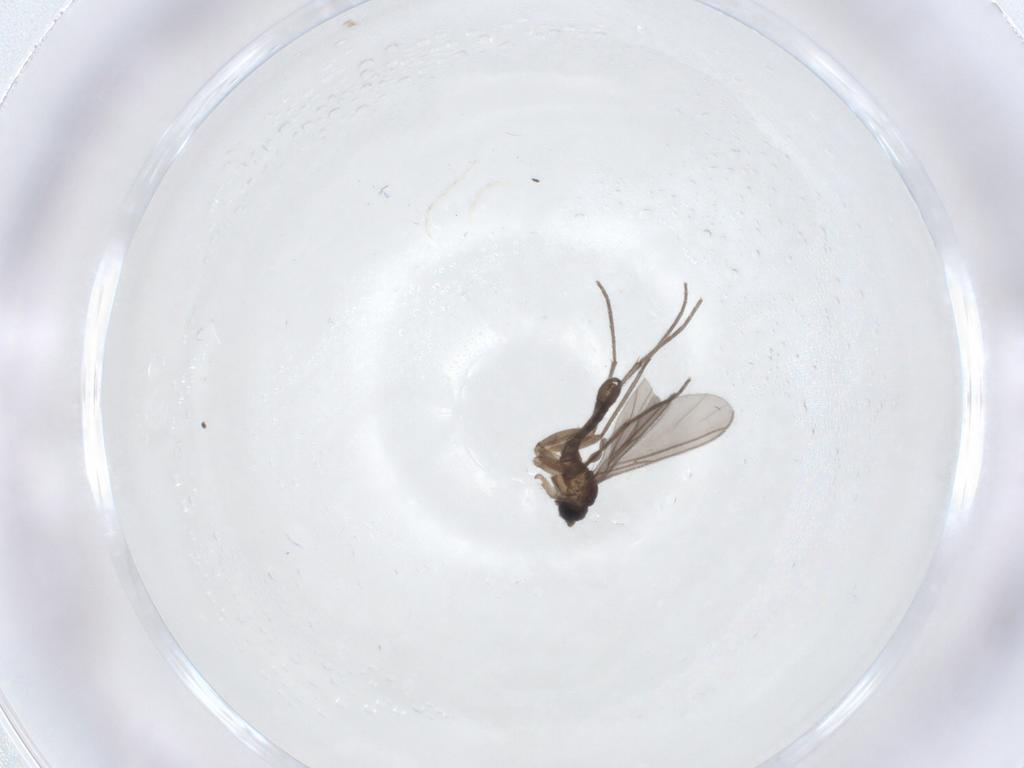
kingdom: Animalia
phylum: Arthropoda
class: Insecta
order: Diptera
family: Sciaridae
